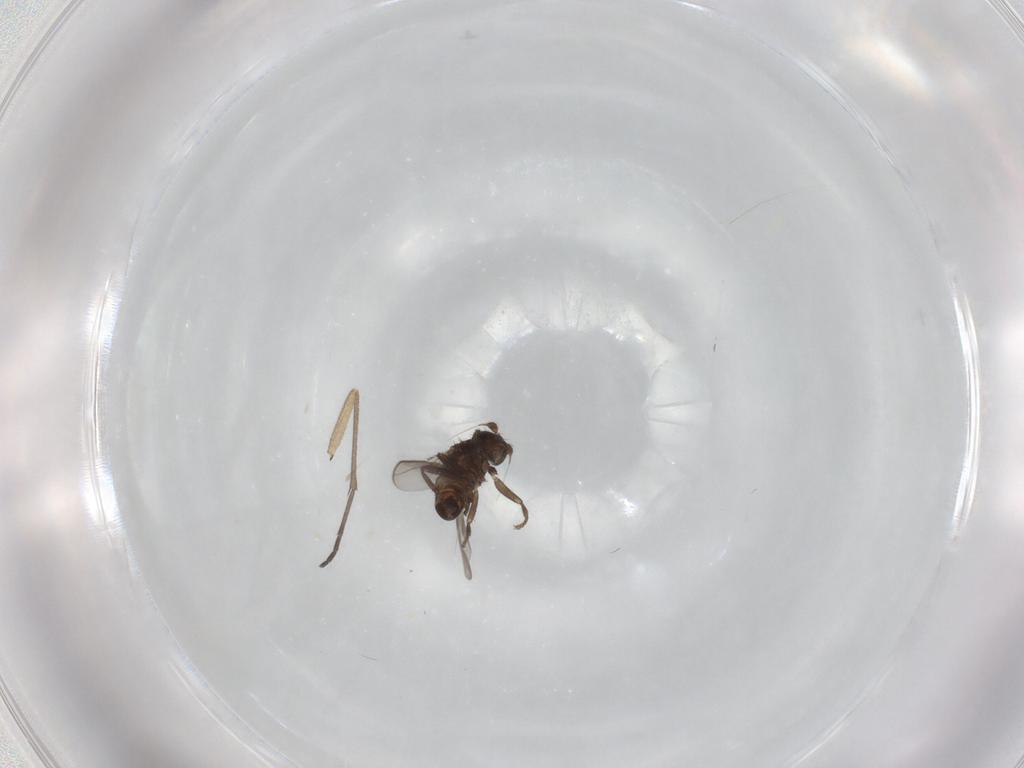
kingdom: Animalia
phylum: Arthropoda
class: Insecta
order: Diptera
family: Sphaeroceridae
